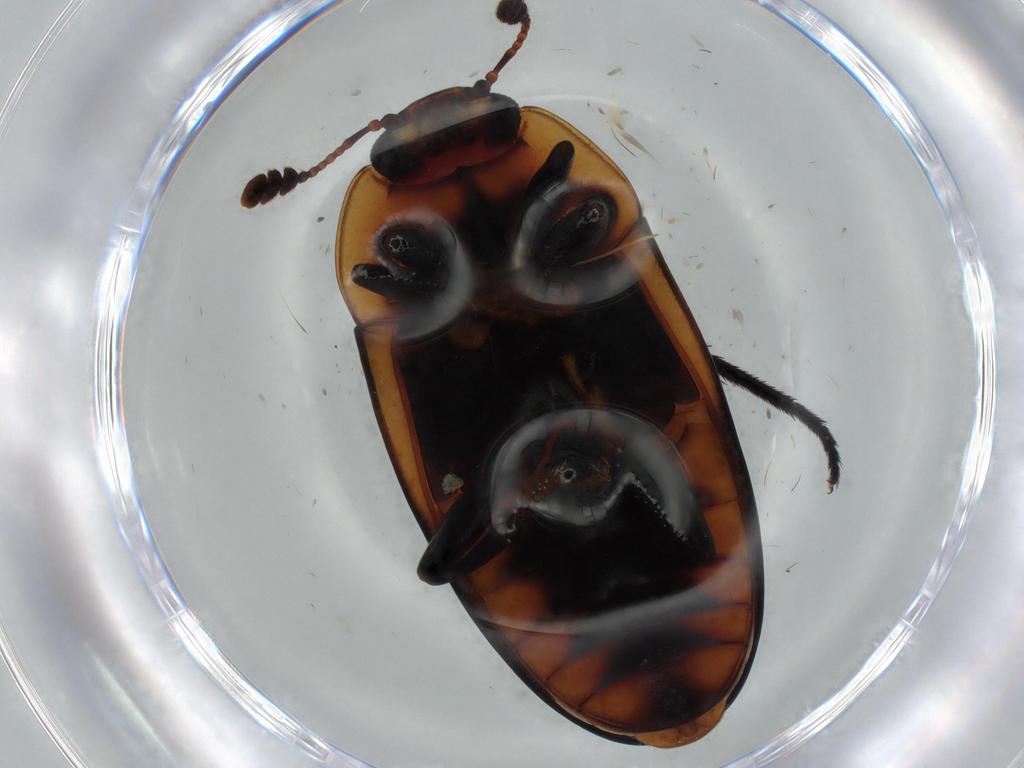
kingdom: Animalia
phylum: Arthropoda
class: Insecta
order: Coleoptera
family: Erotylidae
